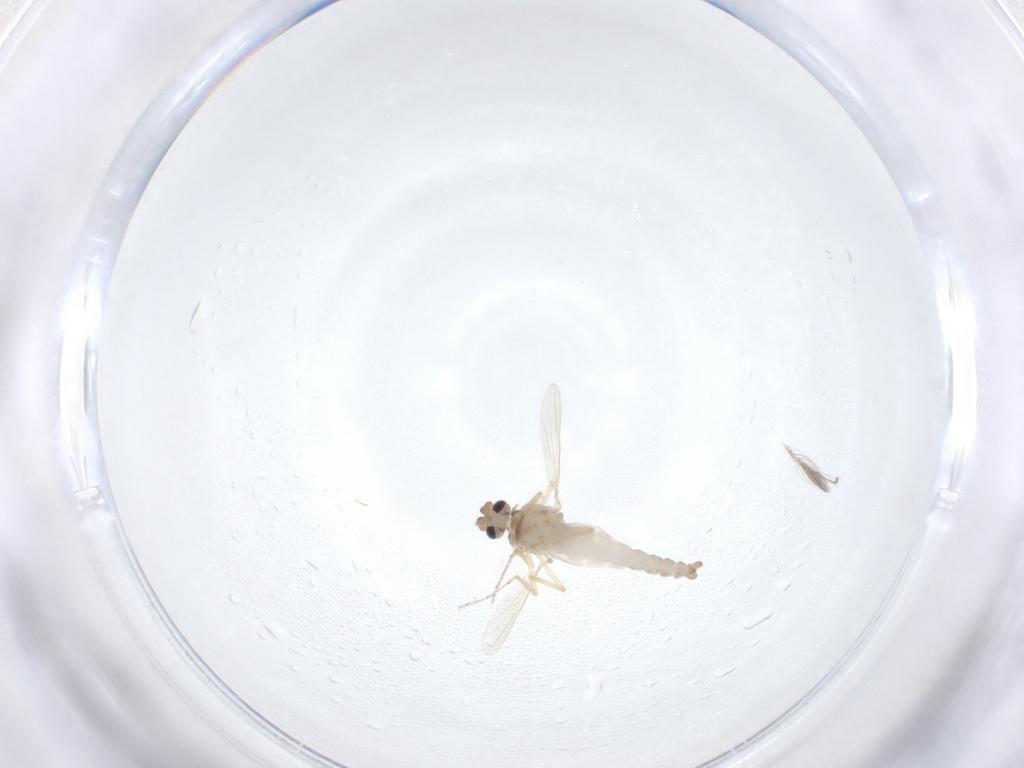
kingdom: Animalia
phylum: Arthropoda
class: Insecta
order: Diptera
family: Ceratopogonidae
